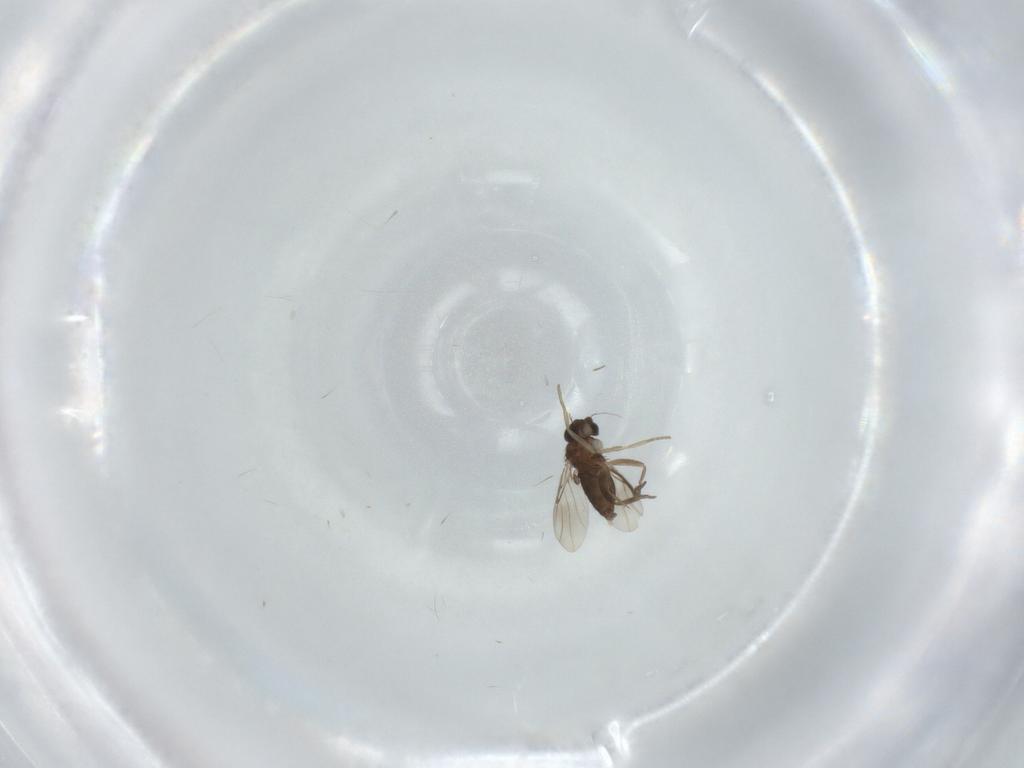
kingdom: Animalia
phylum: Arthropoda
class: Insecta
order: Diptera
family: Phoridae
